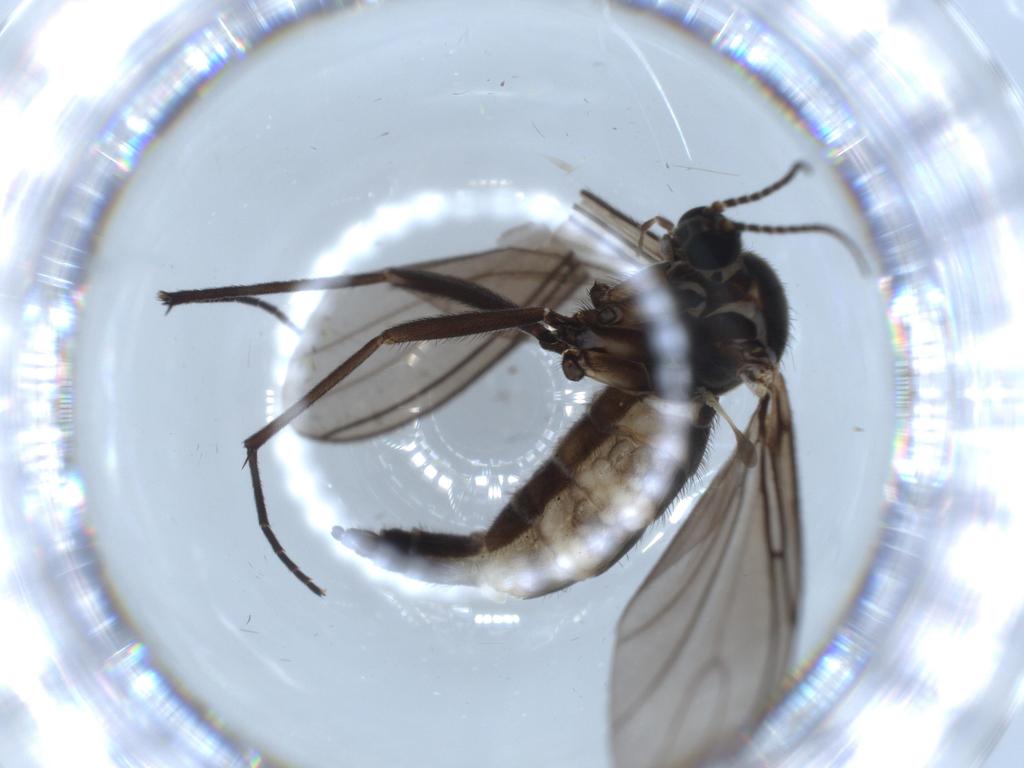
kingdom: Animalia
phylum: Arthropoda
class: Insecta
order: Diptera
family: Sciaridae
